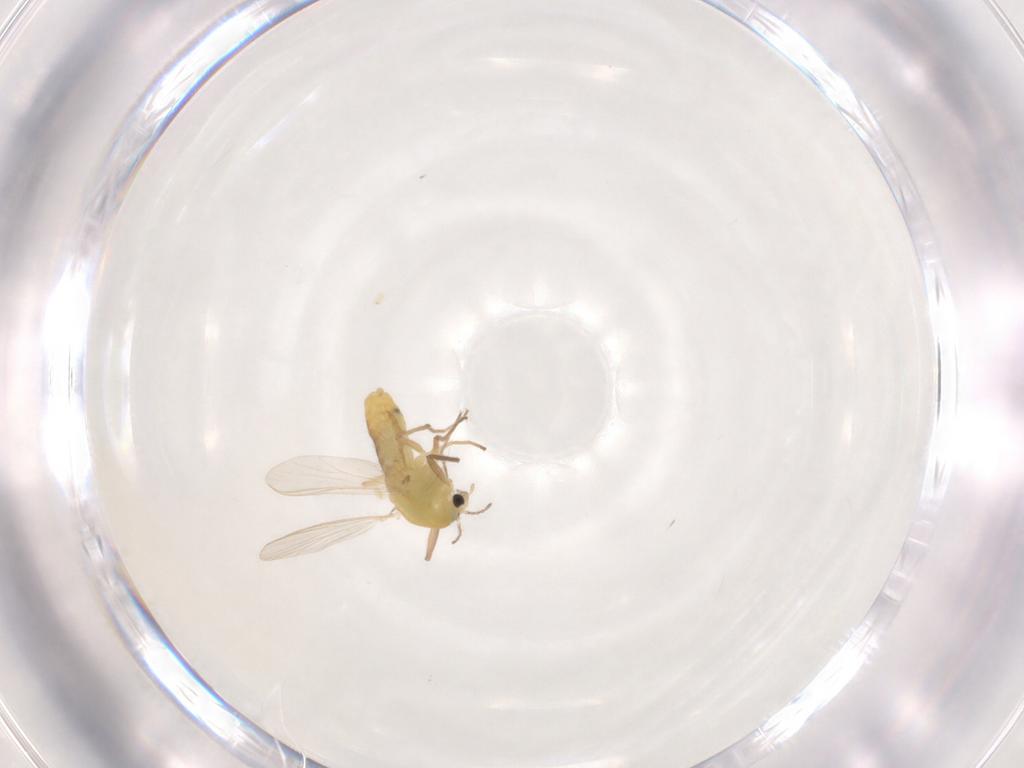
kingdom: Animalia
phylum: Arthropoda
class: Insecta
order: Diptera
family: Chironomidae
